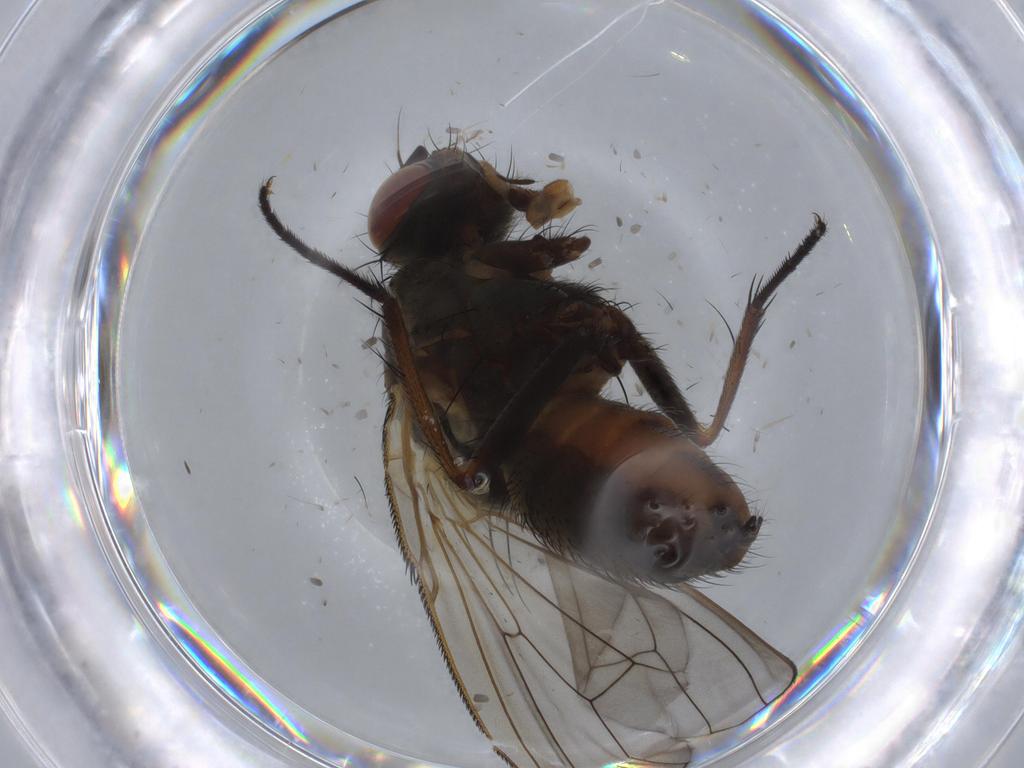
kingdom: Animalia
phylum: Arthropoda
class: Insecta
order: Diptera
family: Anthomyiidae
